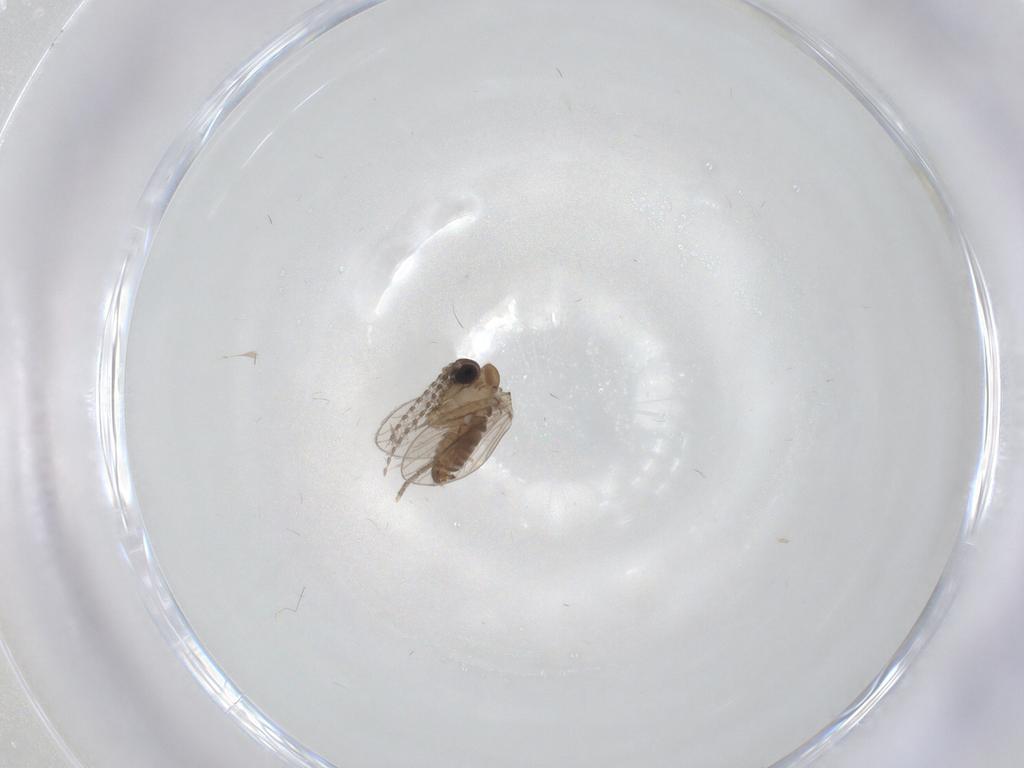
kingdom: Animalia
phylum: Arthropoda
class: Insecta
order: Diptera
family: Psychodidae
